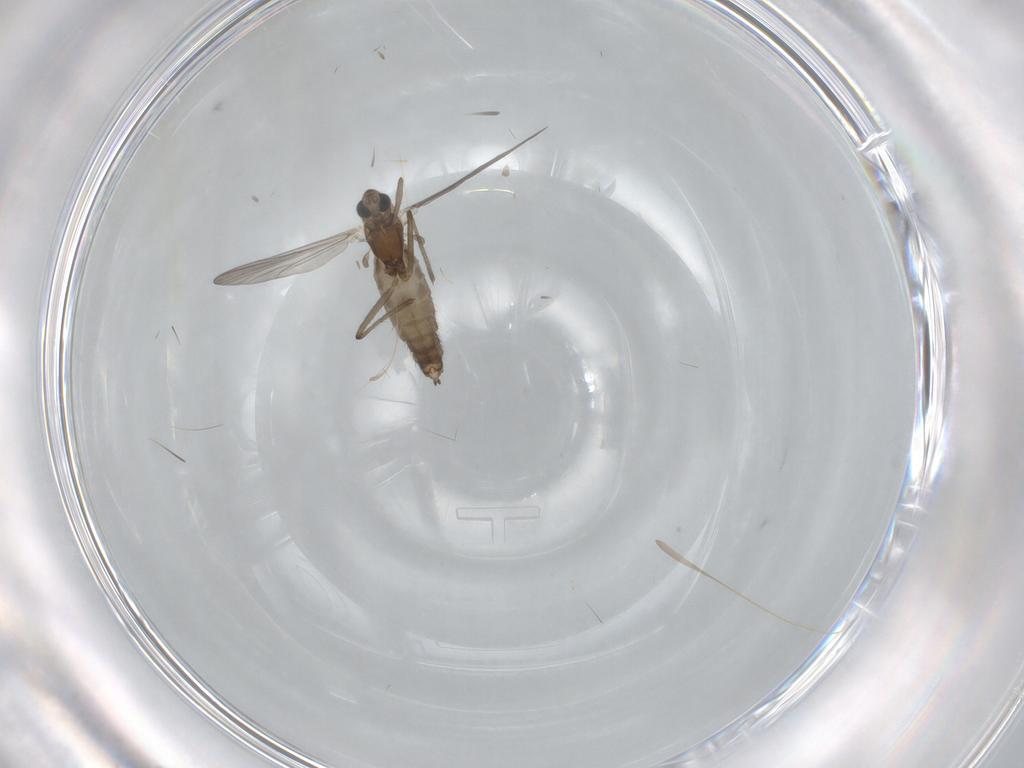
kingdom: Animalia
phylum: Arthropoda
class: Insecta
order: Diptera
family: Chironomidae
